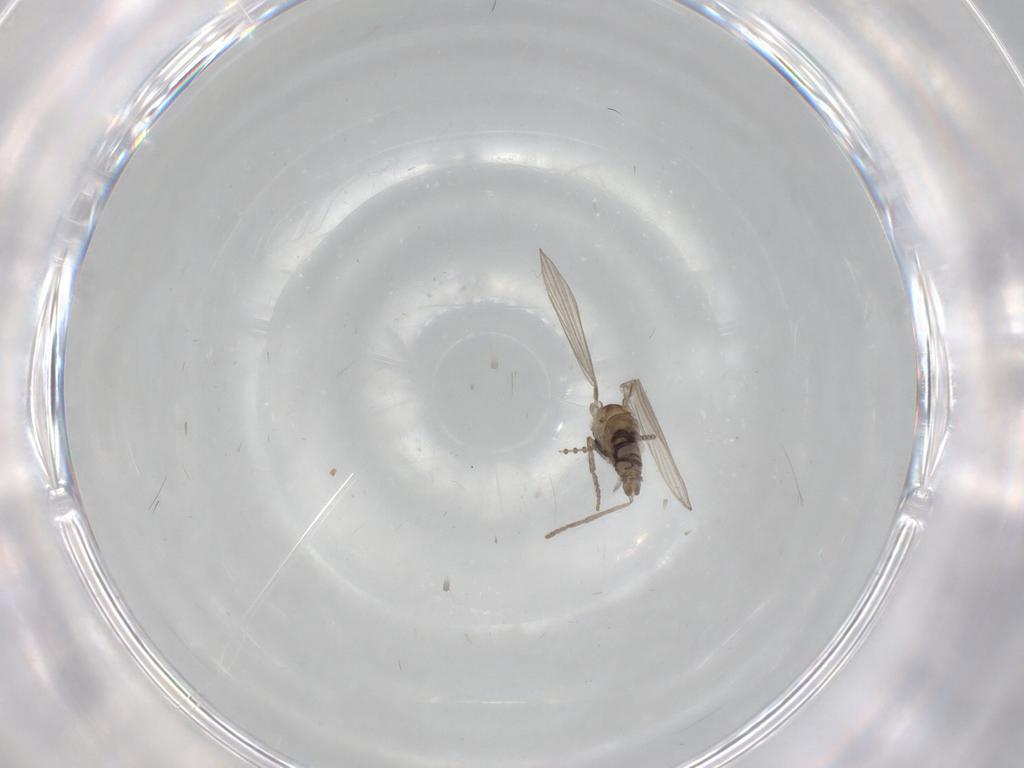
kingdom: Animalia
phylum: Arthropoda
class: Insecta
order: Diptera
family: Psychodidae
